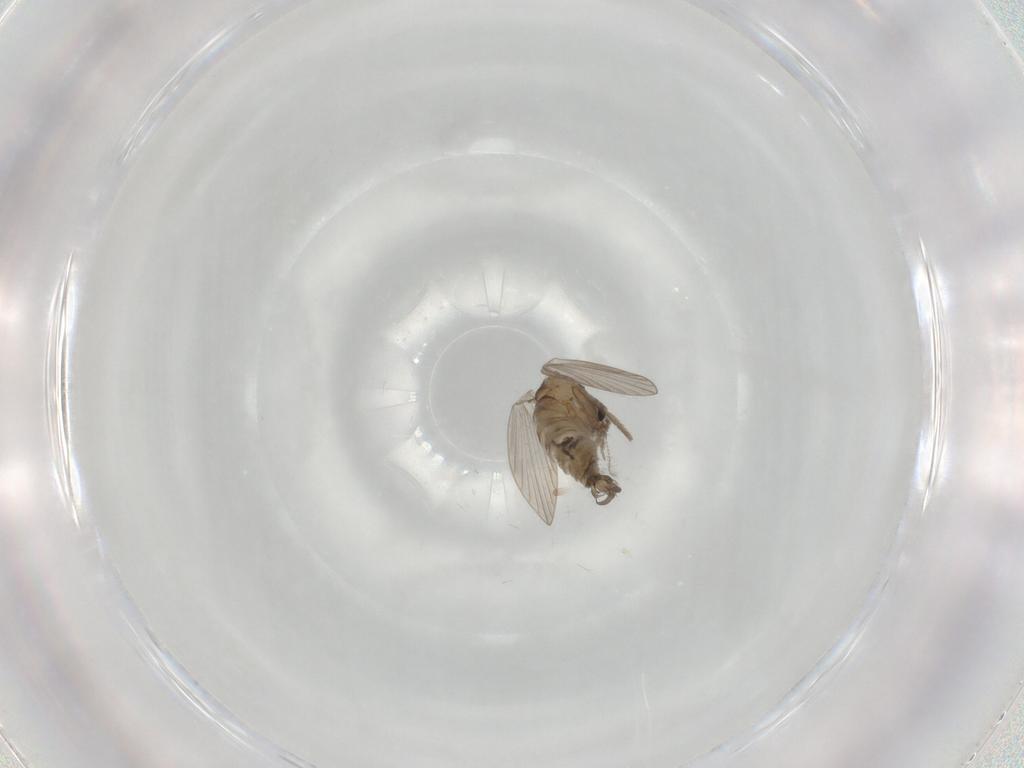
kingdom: Animalia
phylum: Arthropoda
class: Insecta
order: Diptera
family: Psychodidae
